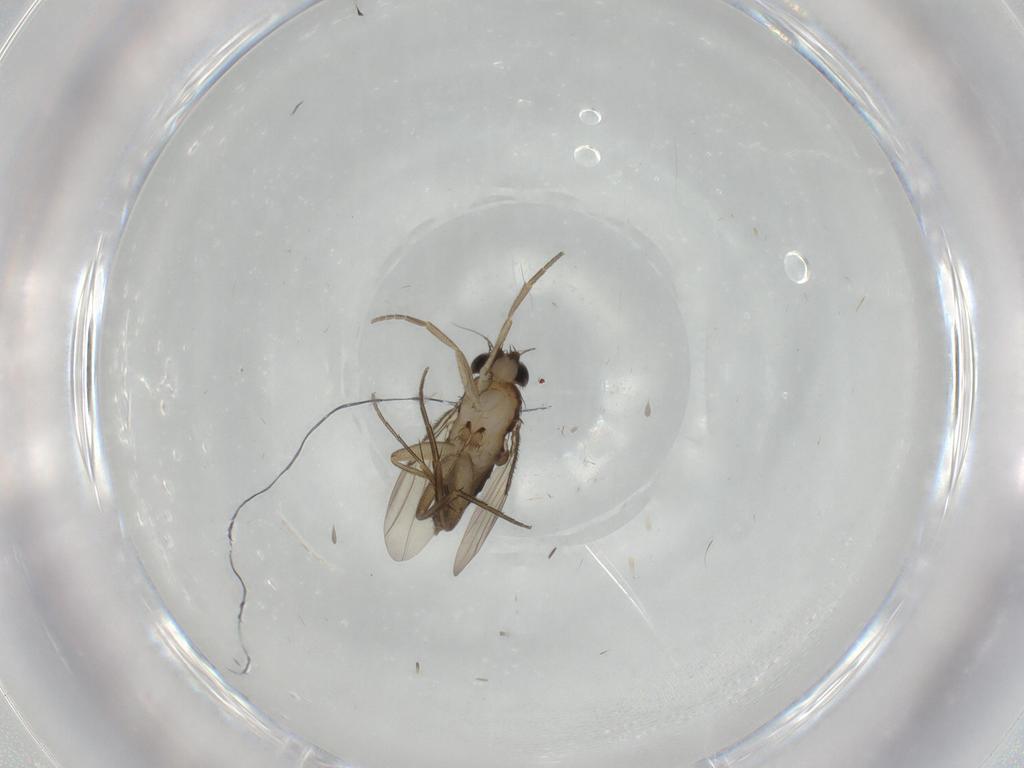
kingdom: Animalia
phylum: Arthropoda
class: Insecta
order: Diptera
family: Phoridae
